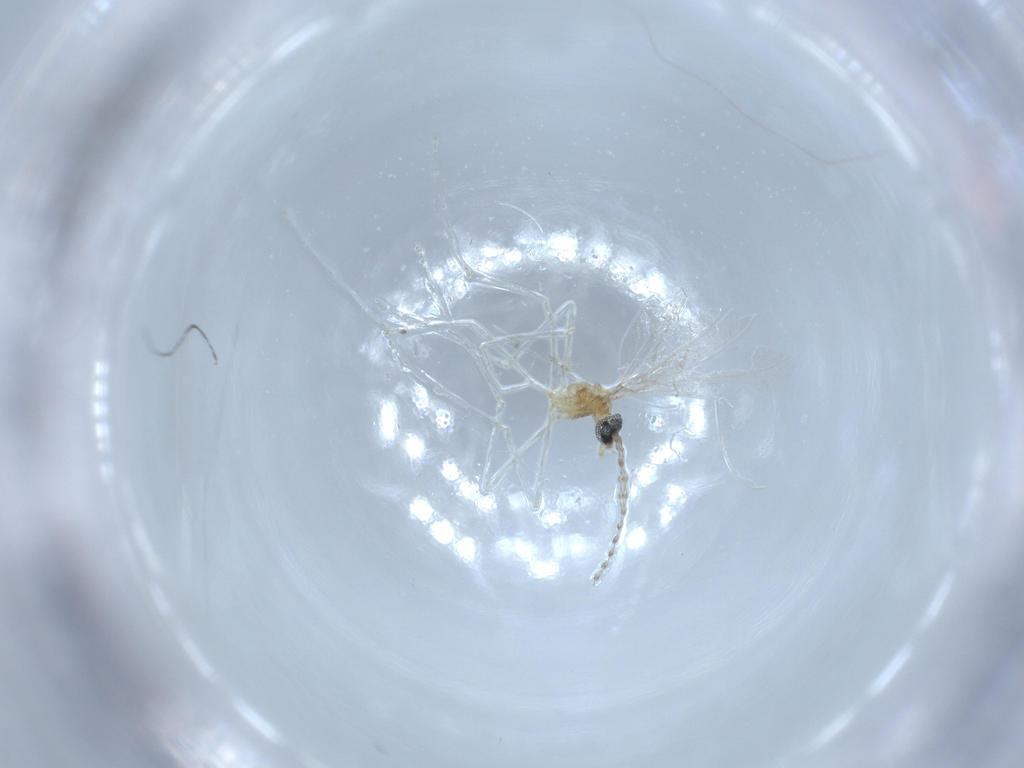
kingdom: Animalia
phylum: Arthropoda
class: Insecta
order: Diptera
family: Cecidomyiidae
